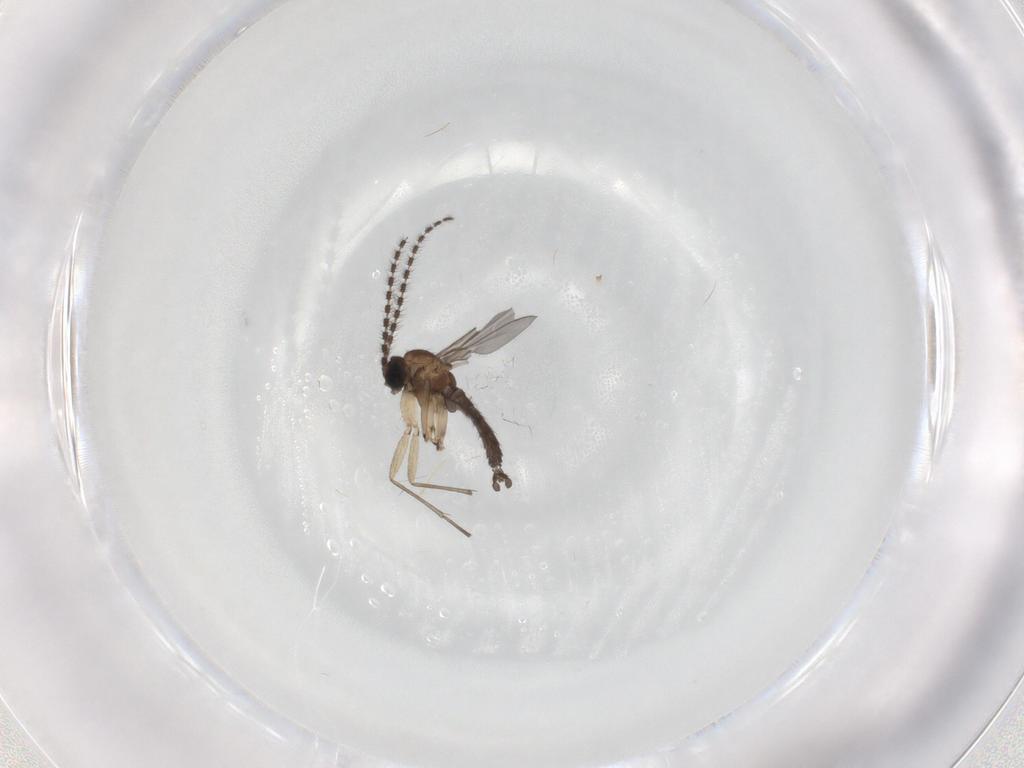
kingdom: Animalia
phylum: Arthropoda
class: Insecta
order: Diptera
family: Sciaridae
